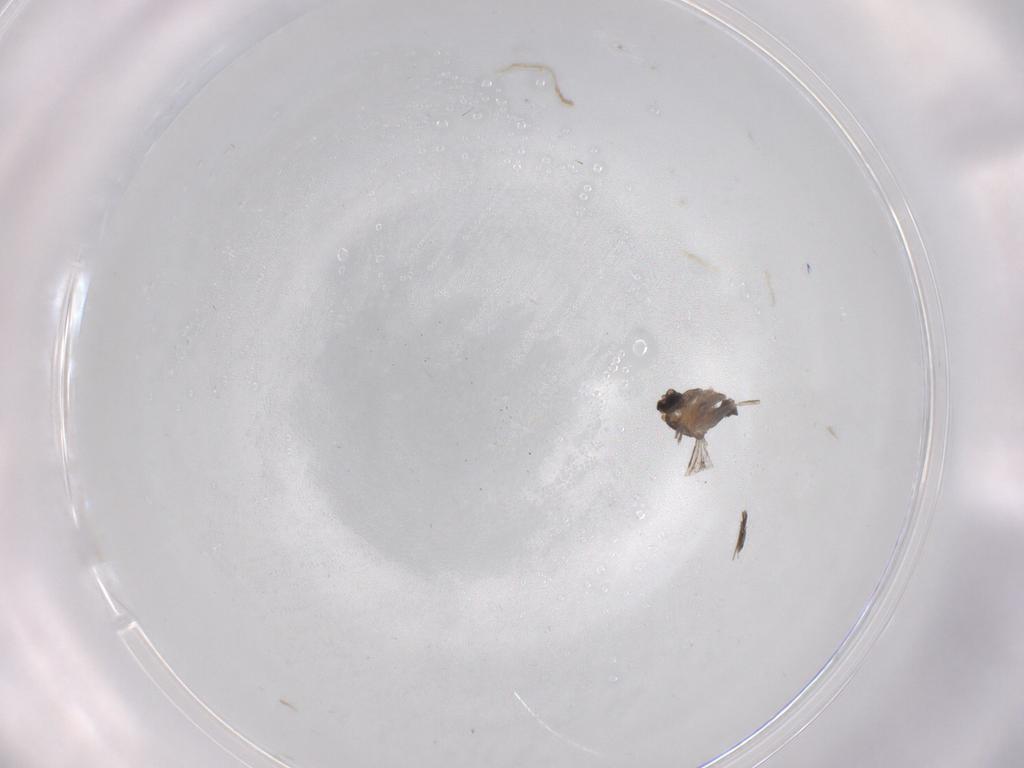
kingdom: Animalia
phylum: Arthropoda
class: Insecta
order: Diptera
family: Cecidomyiidae
